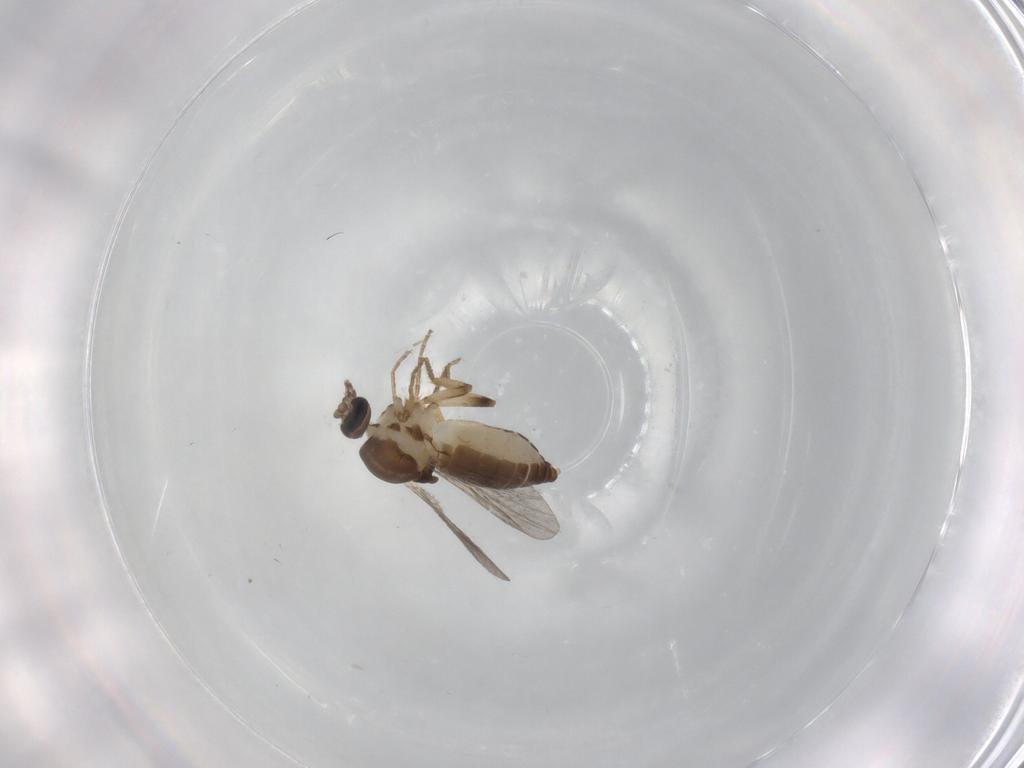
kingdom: Animalia
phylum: Arthropoda
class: Insecta
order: Diptera
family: Ceratopogonidae
